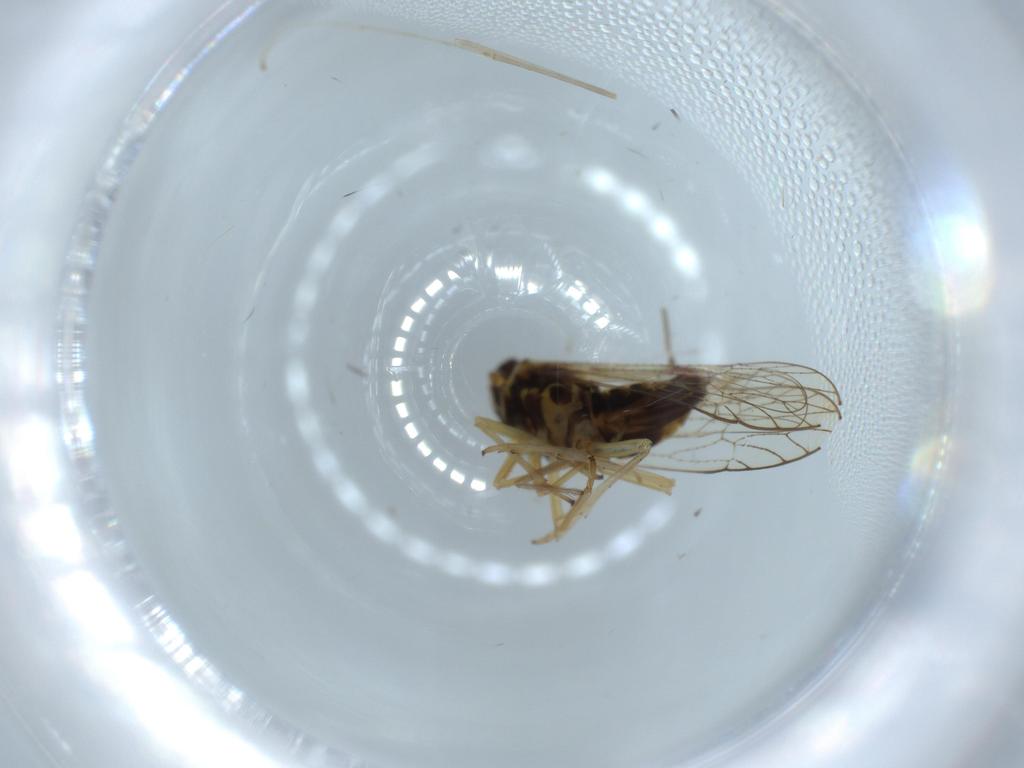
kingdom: Animalia
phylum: Arthropoda
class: Insecta
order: Diptera
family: Cecidomyiidae
